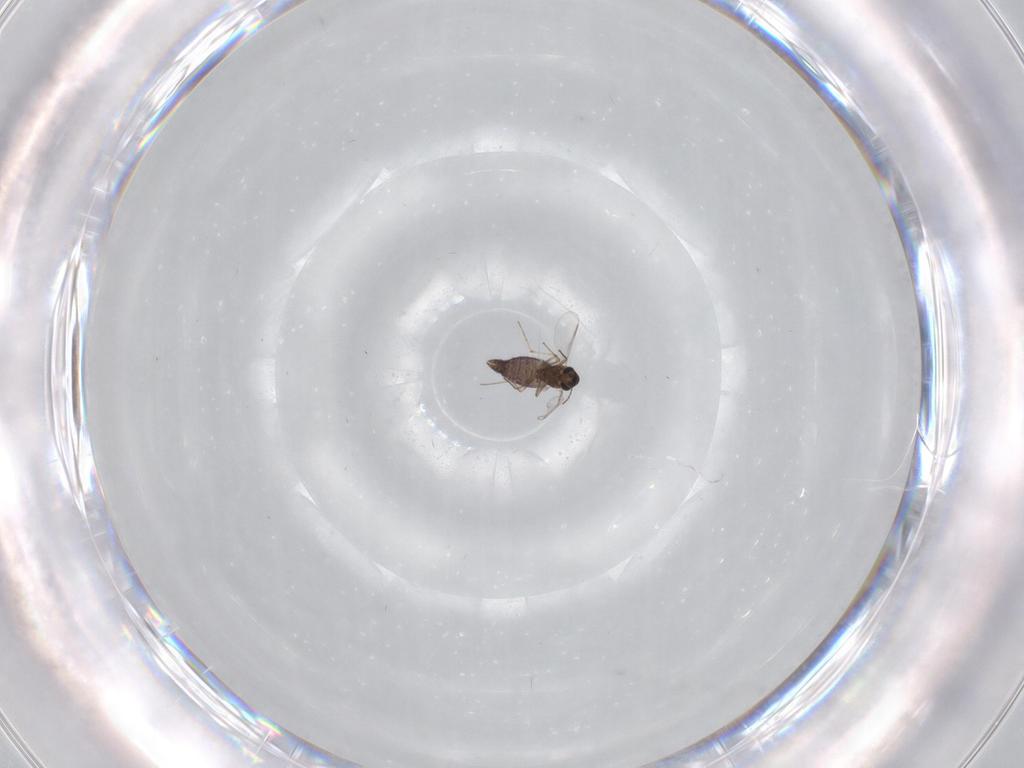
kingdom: Animalia
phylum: Arthropoda
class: Insecta
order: Diptera
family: Chironomidae
